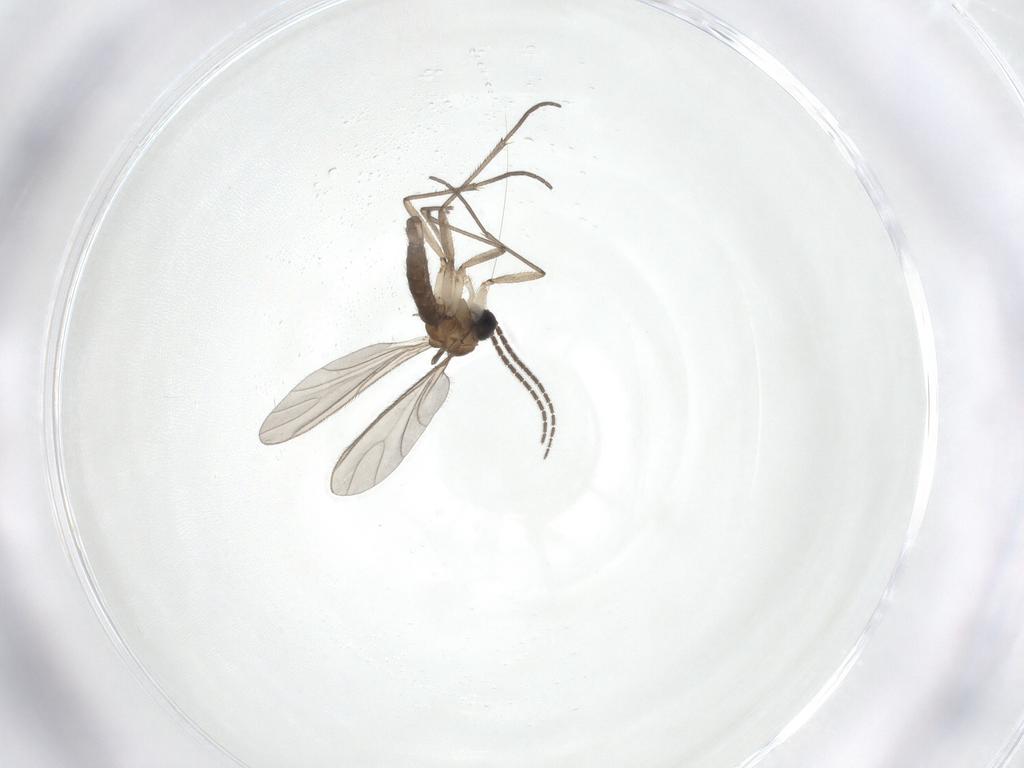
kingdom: Animalia
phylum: Arthropoda
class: Insecta
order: Diptera
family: Sciaridae
